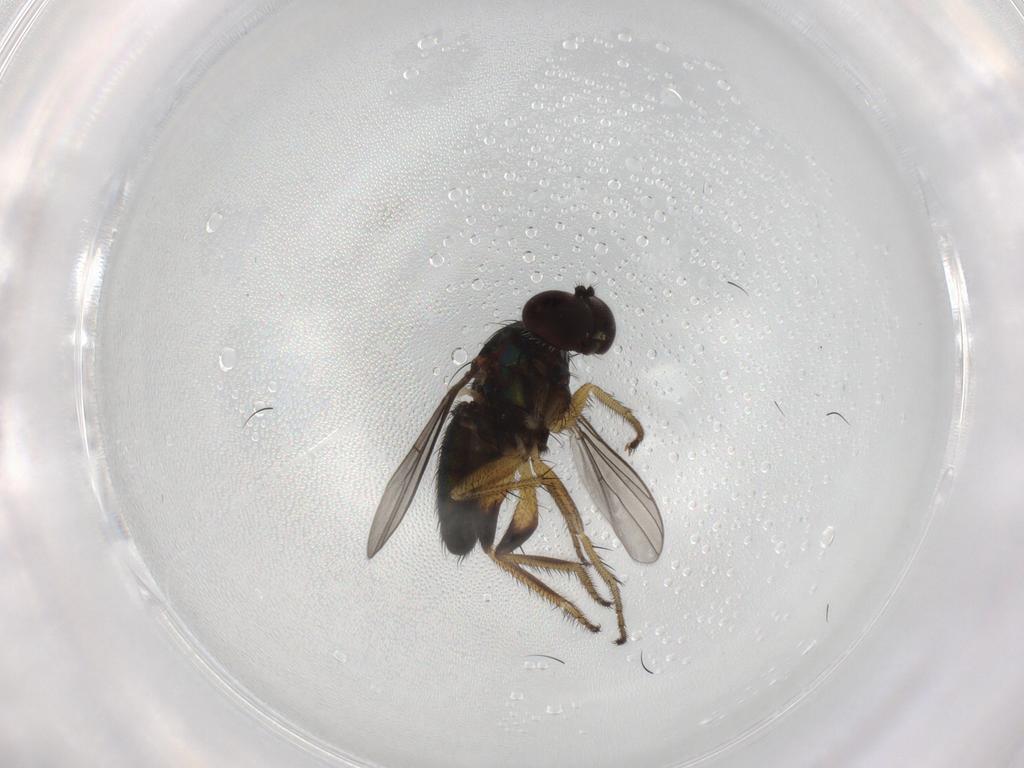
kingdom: Animalia
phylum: Arthropoda
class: Insecta
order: Diptera
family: Dolichopodidae
